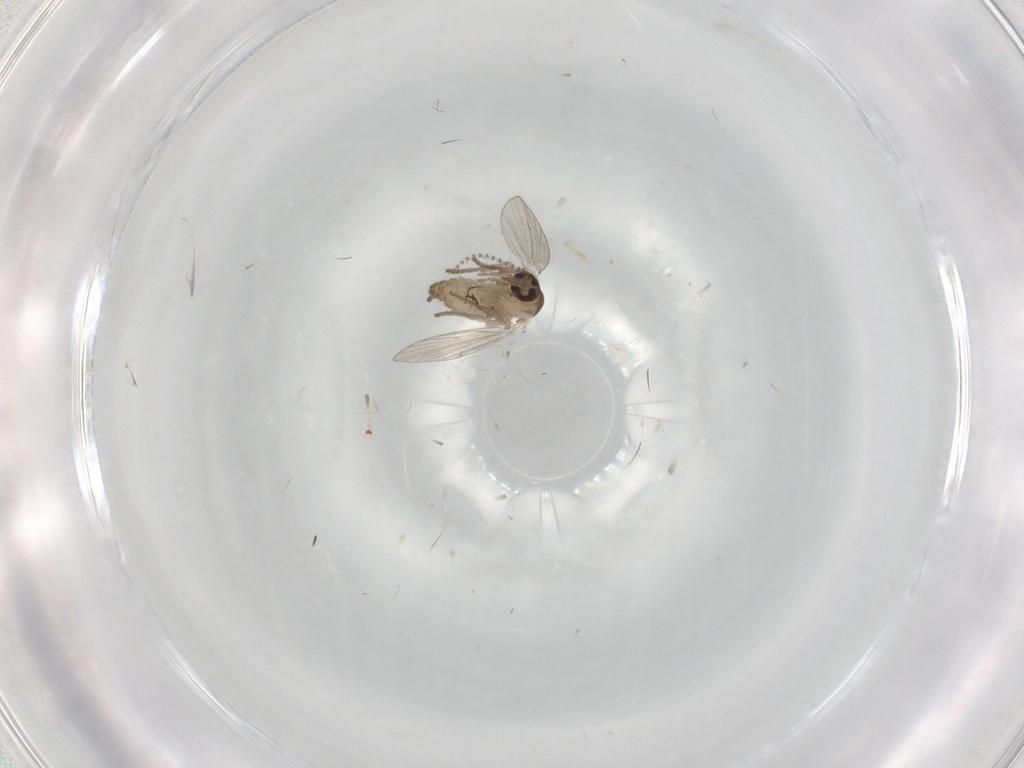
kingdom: Animalia
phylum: Arthropoda
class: Insecta
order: Diptera
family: Psychodidae
